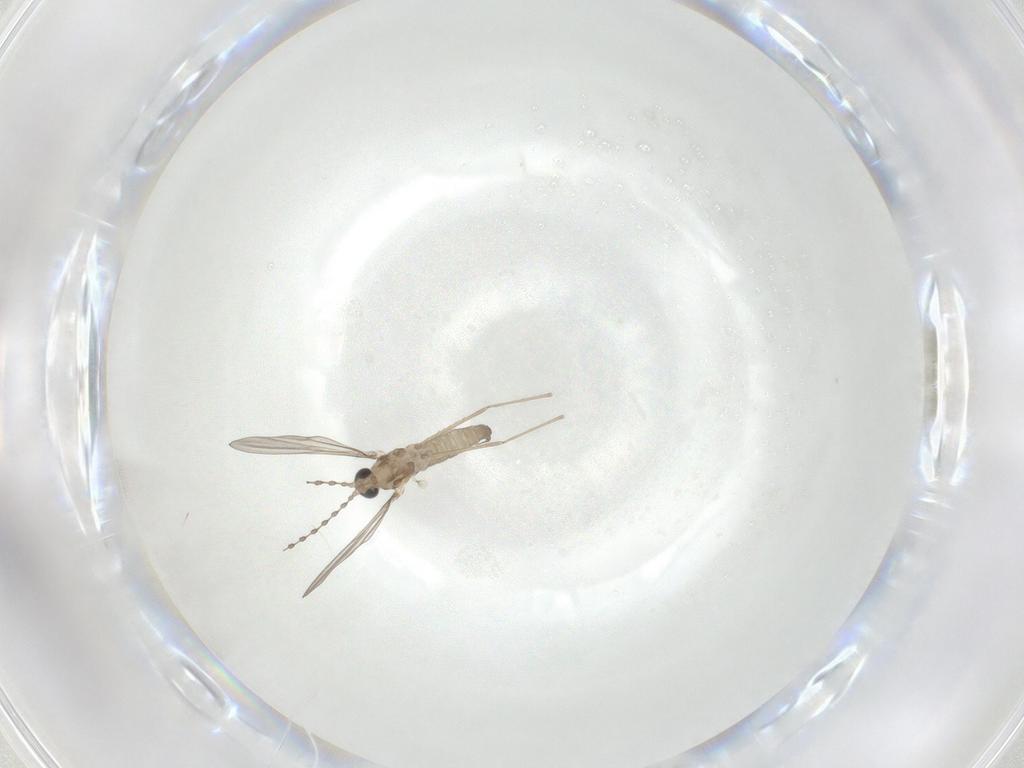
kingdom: Animalia
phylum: Arthropoda
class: Insecta
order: Diptera
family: Cecidomyiidae
